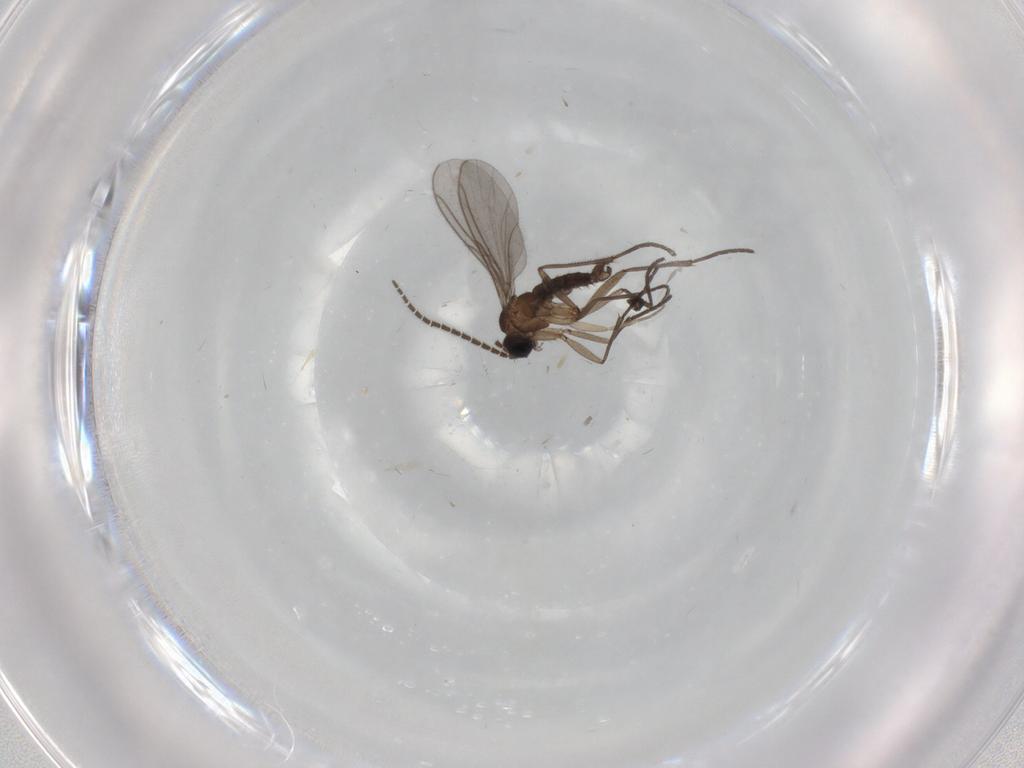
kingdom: Animalia
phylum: Arthropoda
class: Insecta
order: Diptera
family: Sciaridae
